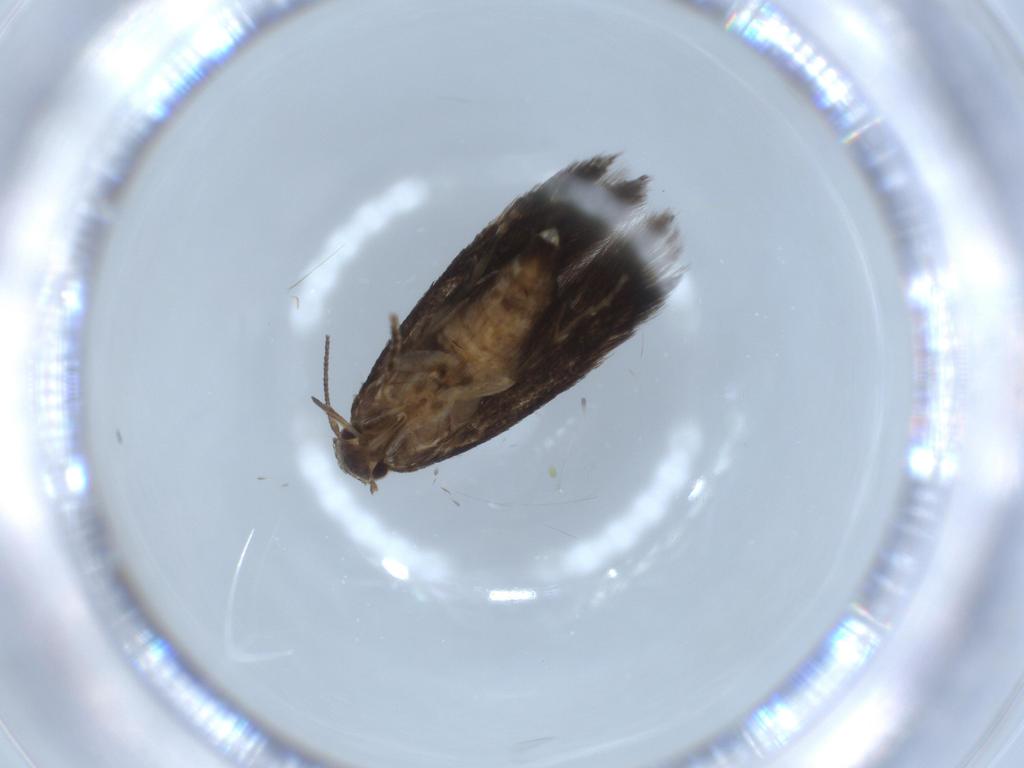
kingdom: Animalia
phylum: Arthropoda
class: Insecta
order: Lepidoptera
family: Gelechiidae
